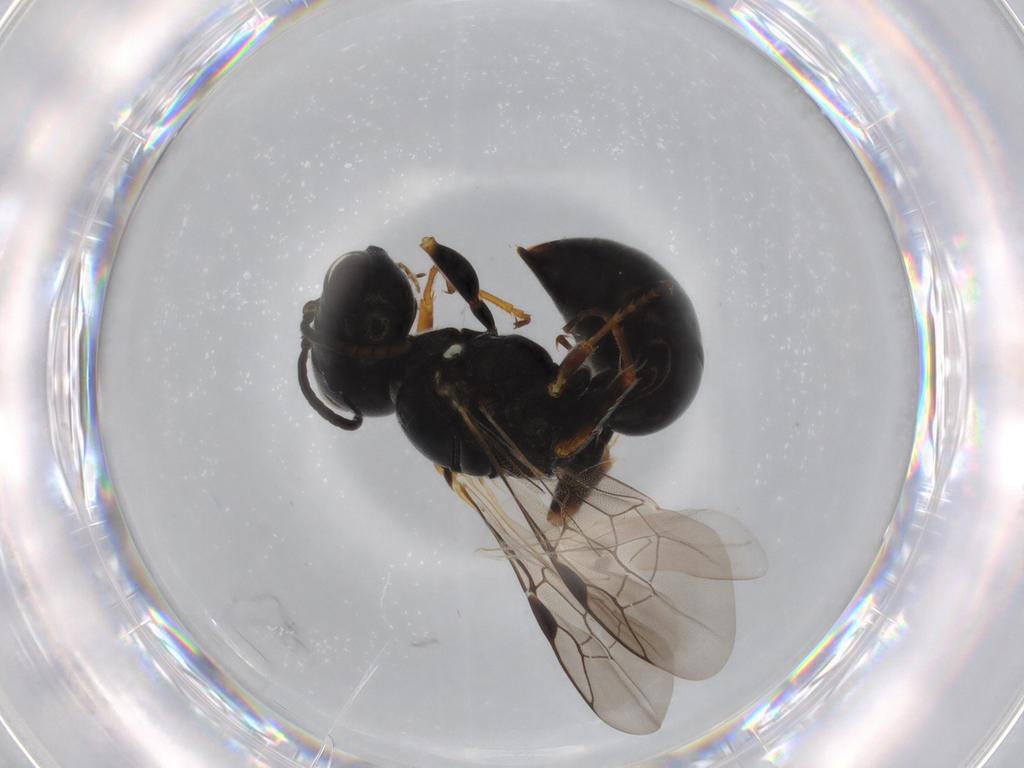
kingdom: Animalia
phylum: Arthropoda
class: Insecta
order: Hymenoptera
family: Crabronidae
